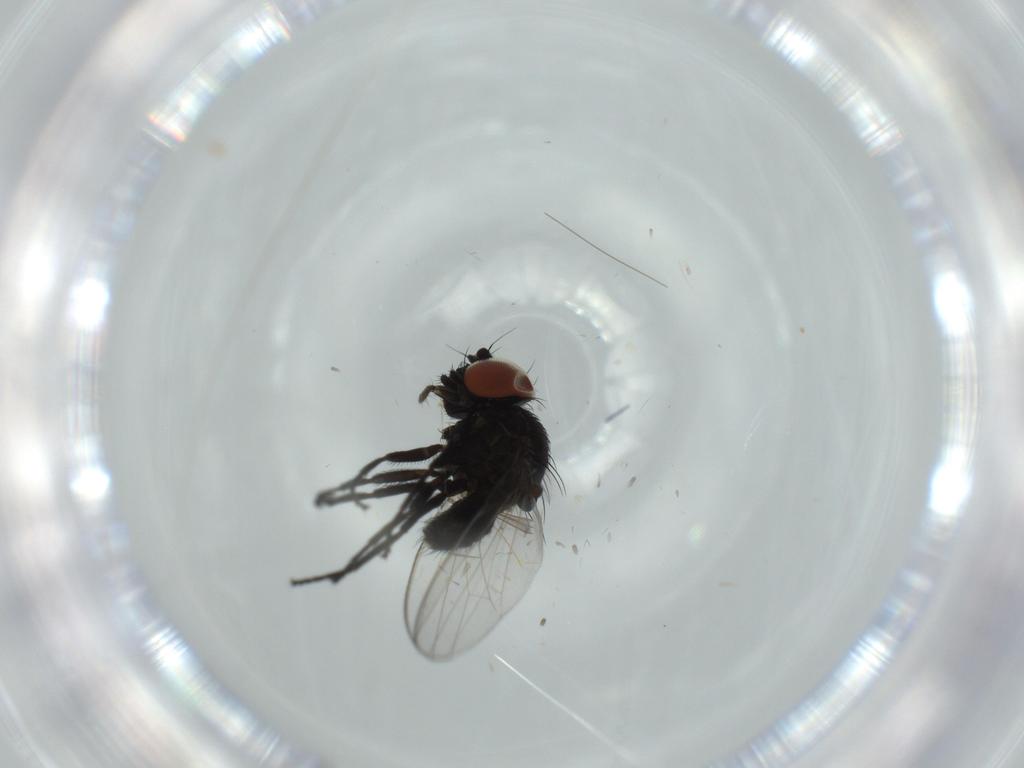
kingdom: Animalia
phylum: Arthropoda
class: Insecta
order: Diptera
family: Milichiidae
